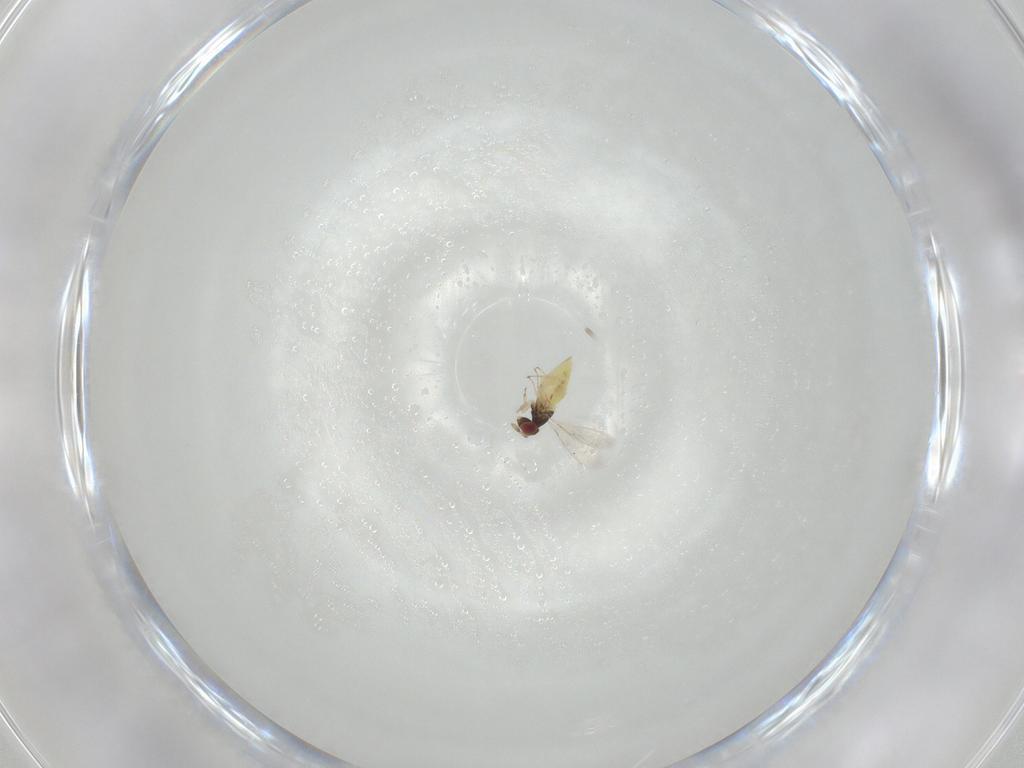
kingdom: Animalia
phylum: Arthropoda
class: Insecta
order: Hymenoptera
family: Trichogrammatidae
